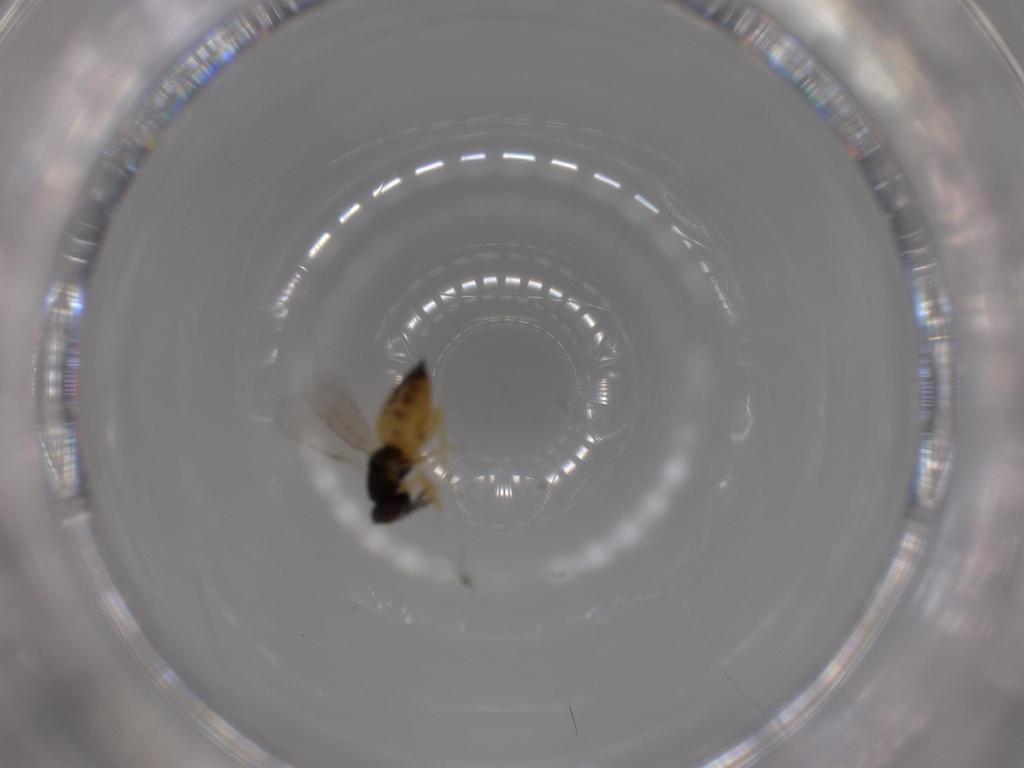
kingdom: Animalia
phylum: Arthropoda
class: Insecta
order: Hymenoptera
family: Eulophidae
